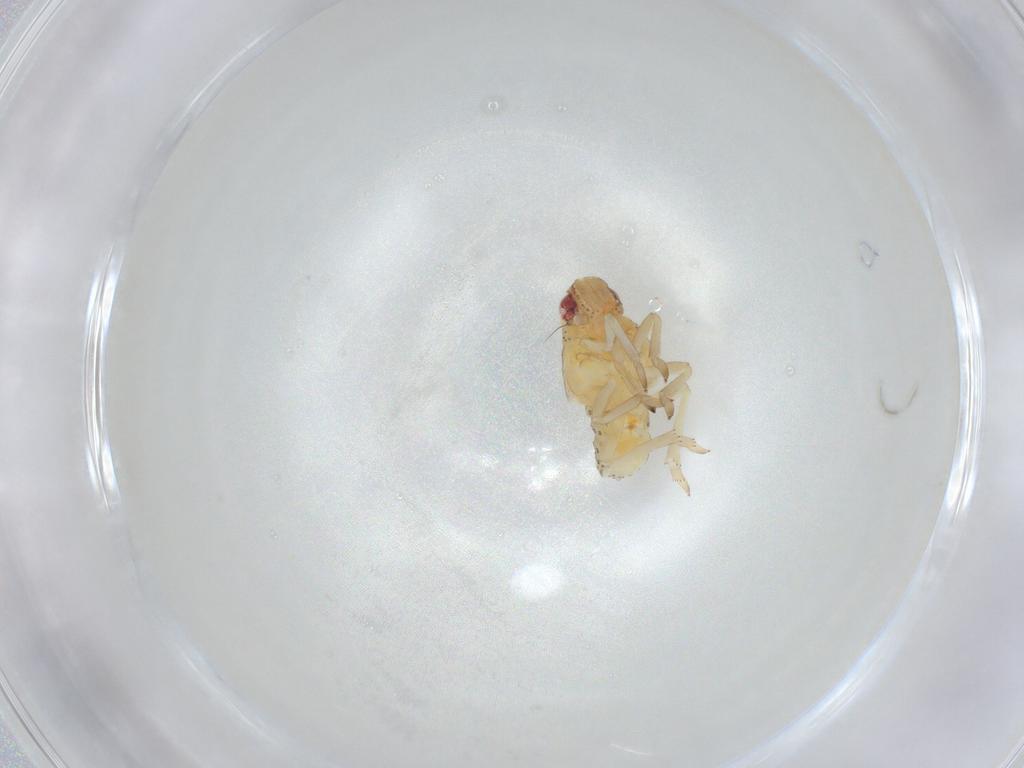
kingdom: Animalia
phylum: Arthropoda
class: Insecta
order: Hemiptera
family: Tropiduchidae
